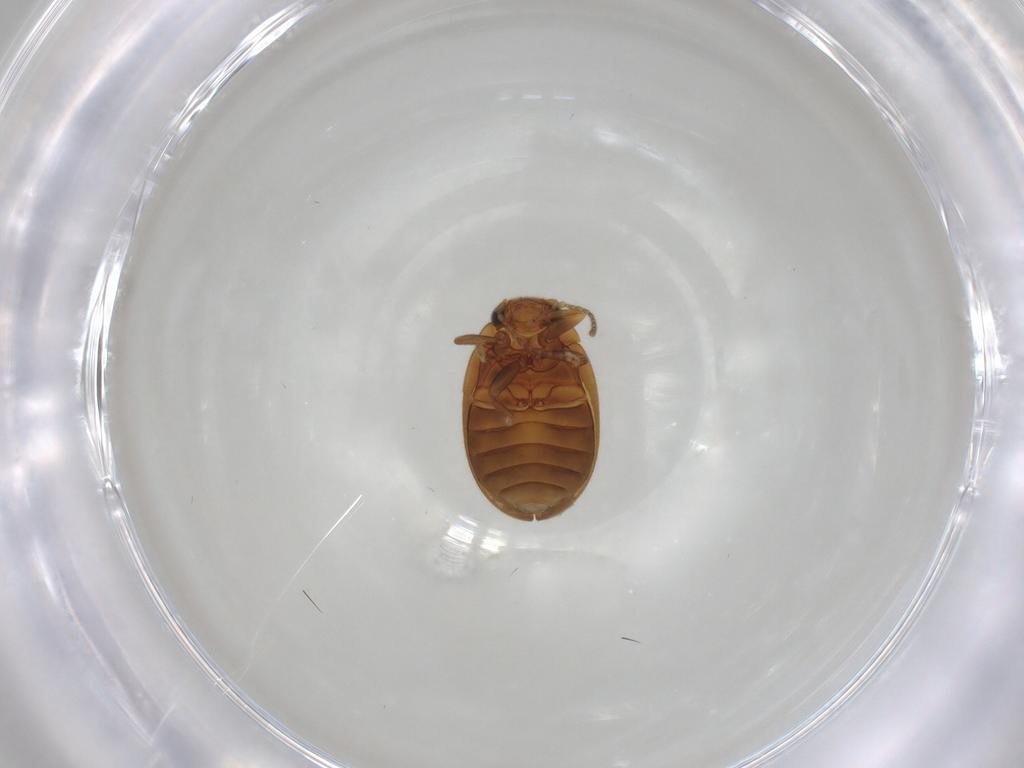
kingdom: Animalia
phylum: Arthropoda
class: Insecta
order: Coleoptera
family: Scirtidae
